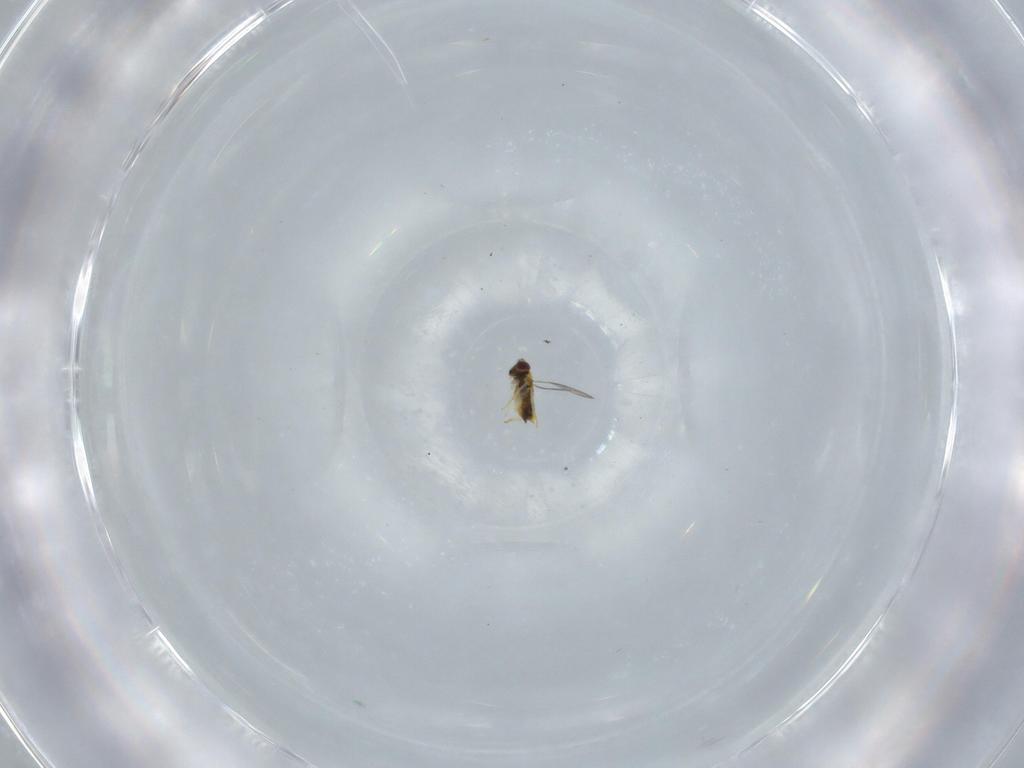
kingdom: Animalia
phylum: Arthropoda
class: Insecta
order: Hymenoptera
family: Aphelinidae
